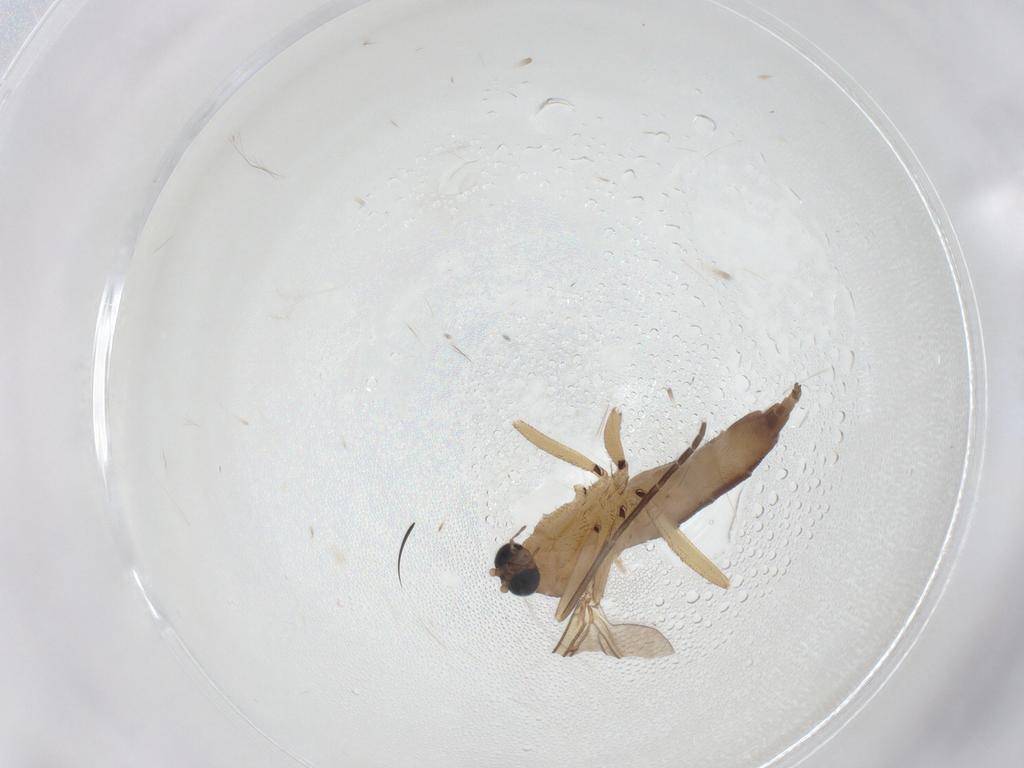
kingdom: Animalia
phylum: Arthropoda
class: Insecta
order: Diptera
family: Sciaridae
